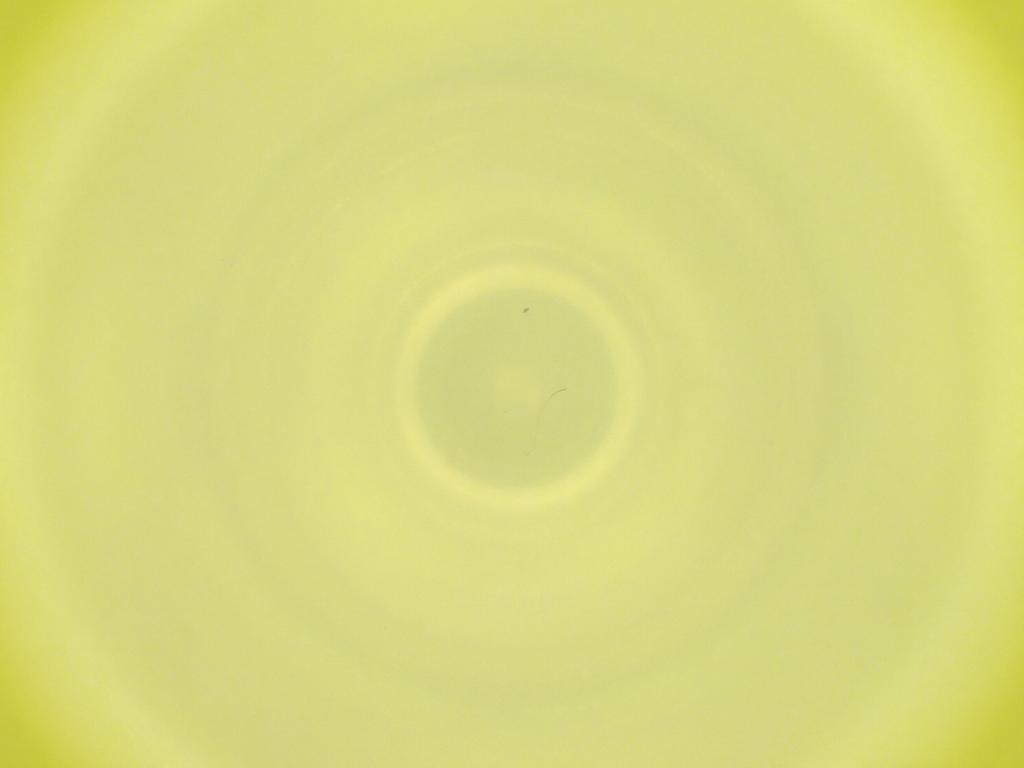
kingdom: Animalia
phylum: Arthropoda
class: Insecta
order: Diptera
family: Cecidomyiidae
